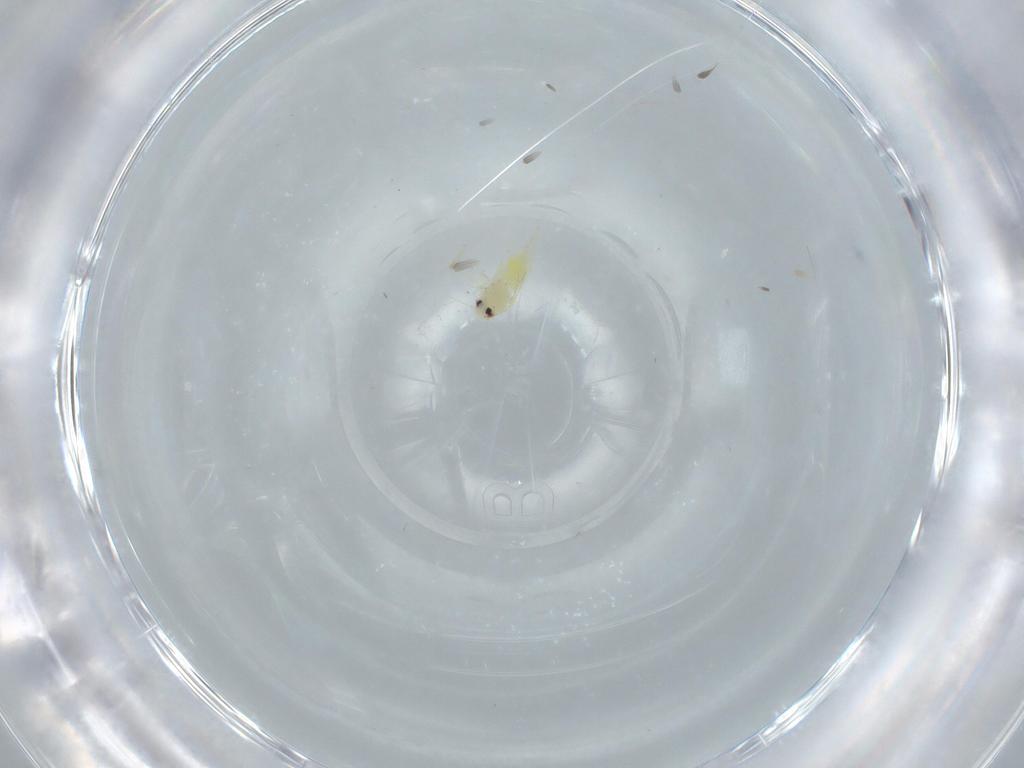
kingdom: Animalia
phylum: Arthropoda
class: Insecta
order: Hemiptera
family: Aleyrodidae
